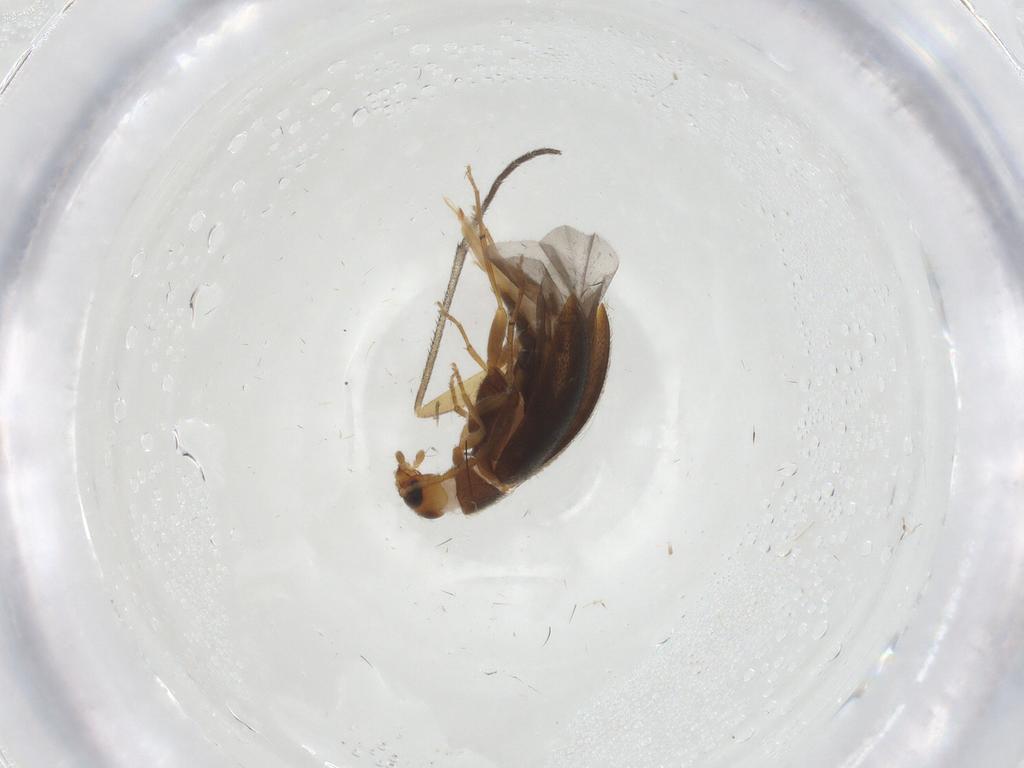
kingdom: Animalia
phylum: Arthropoda
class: Insecta
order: Coleoptera
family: Melandryidae
